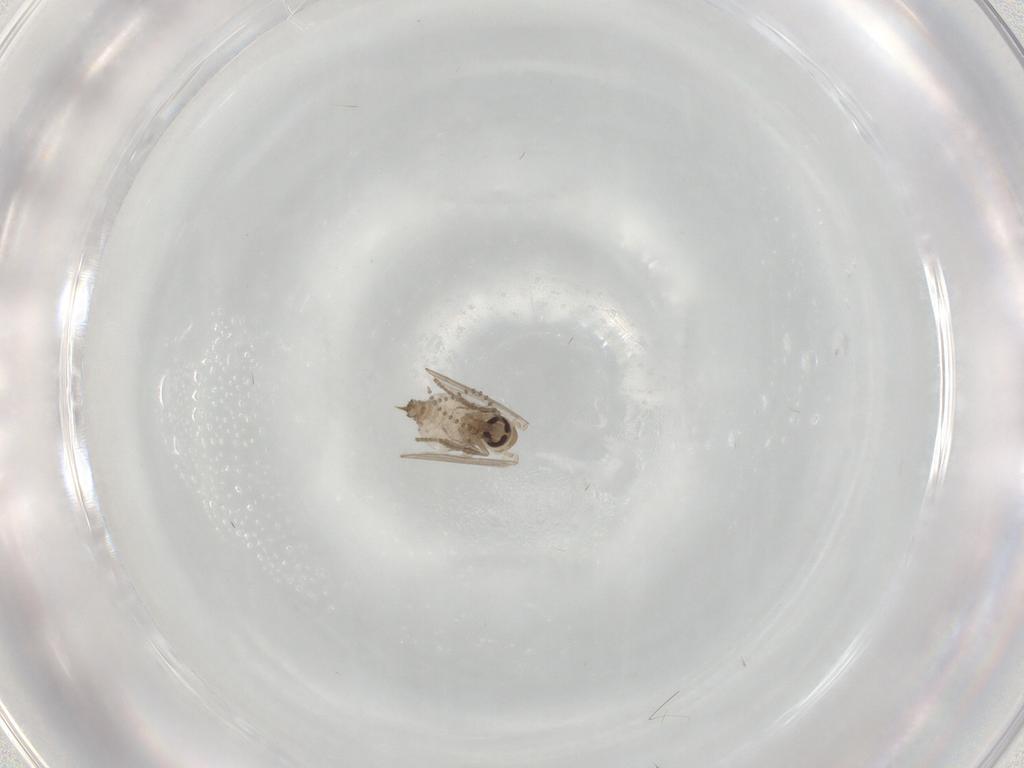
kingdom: Animalia
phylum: Arthropoda
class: Insecta
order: Diptera
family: Psychodidae
